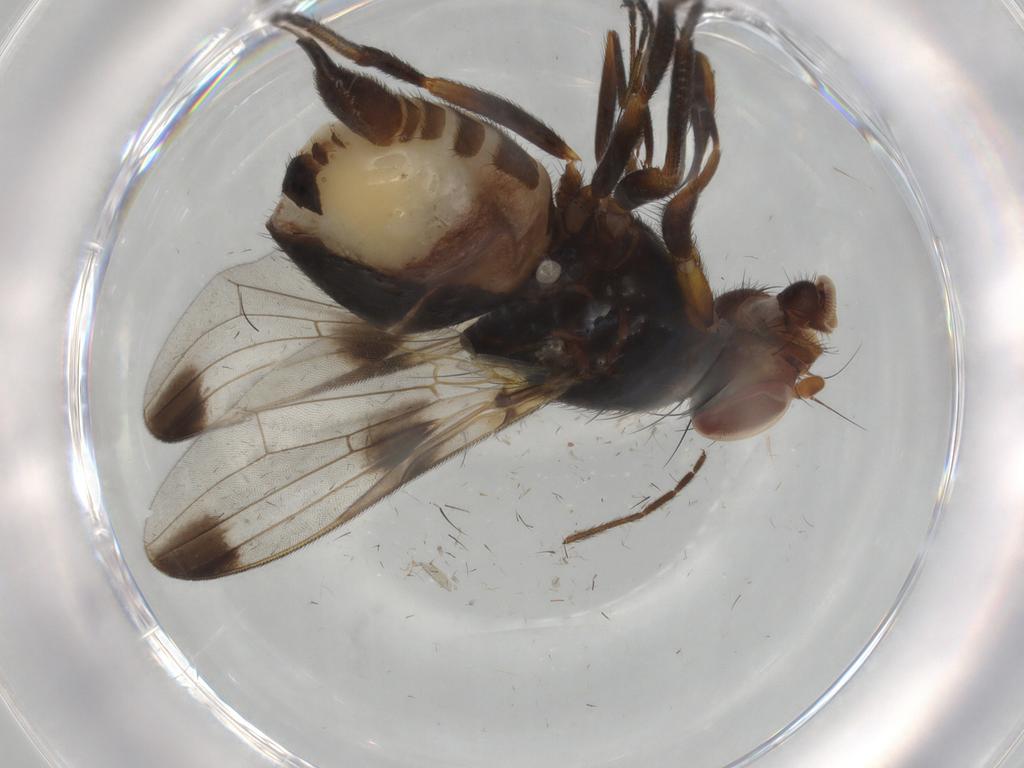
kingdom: Animalia
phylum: Arthropoda
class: Insecta
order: Diptera
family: Ulidiidae
